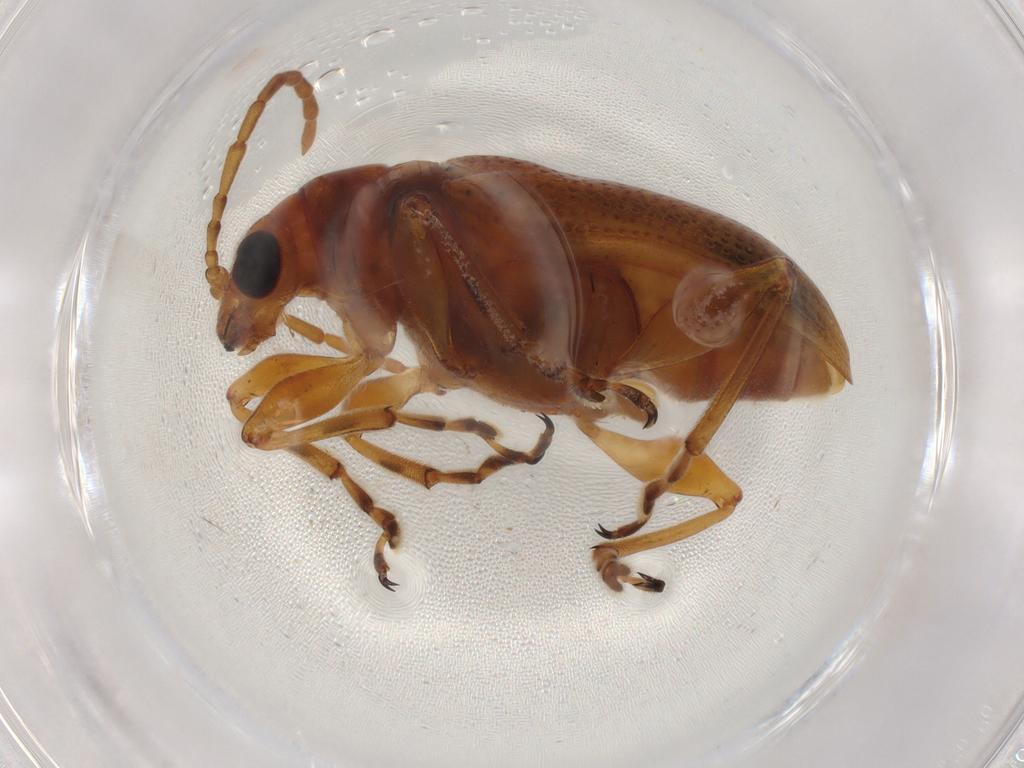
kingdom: Animalia
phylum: Arthropoda
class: Insecta
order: Coleoptera
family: Chrysomelidae
